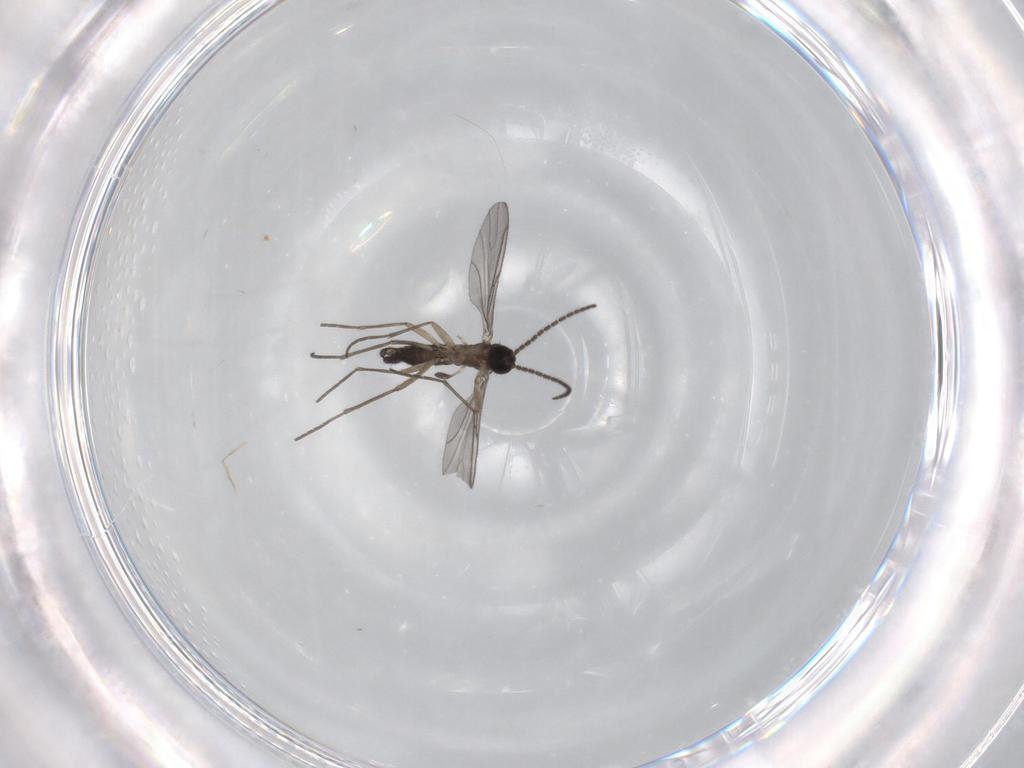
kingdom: Animalia
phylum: Arthropoda
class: Insecta
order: Diptera
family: Sciaridae
